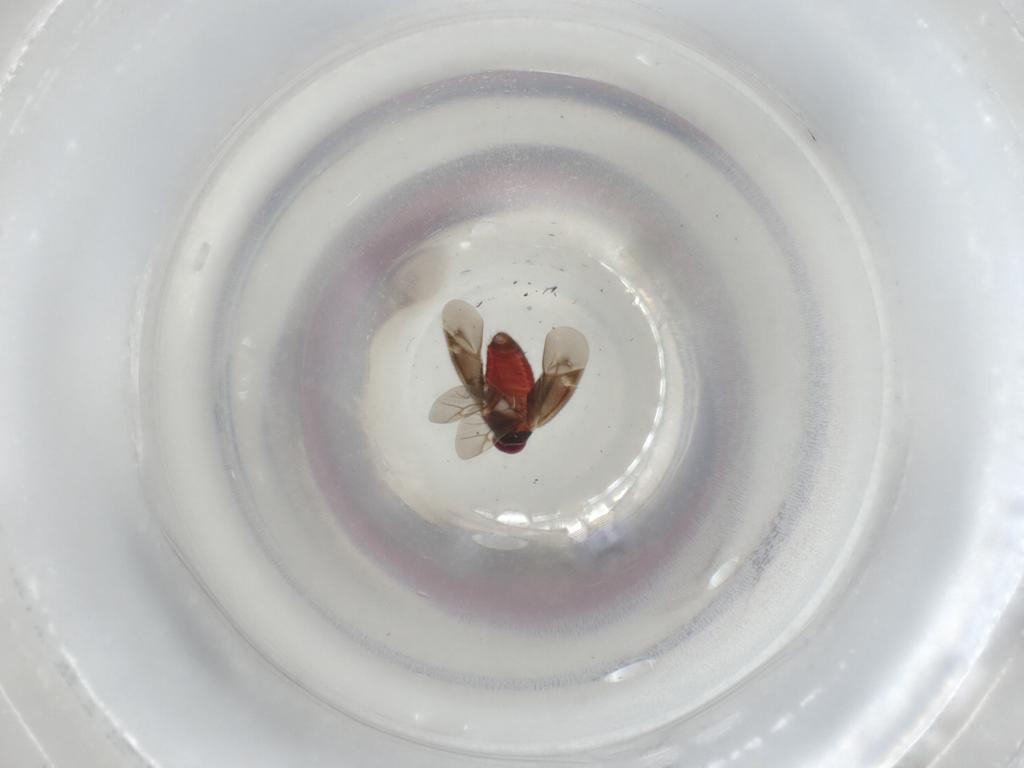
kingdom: Animalia
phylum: Arthropoda
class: Insecta
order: Hemiptera
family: Miridae
